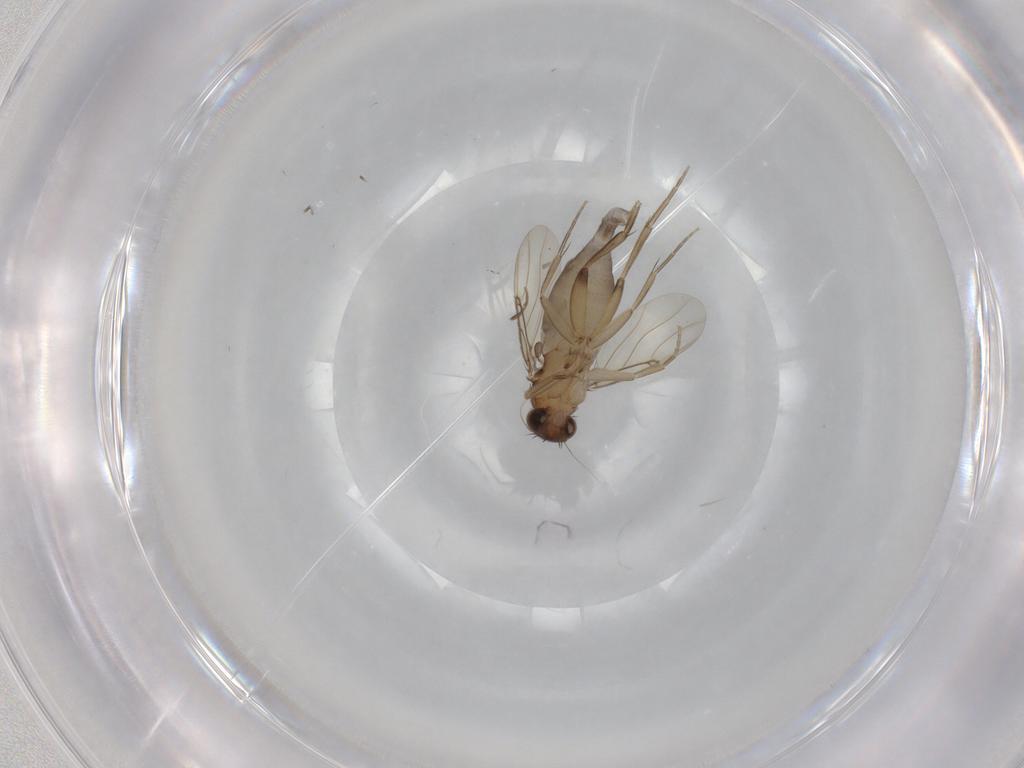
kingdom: Animalia
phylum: Arthropoda
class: Insecta
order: Diptera
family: Phoridae
